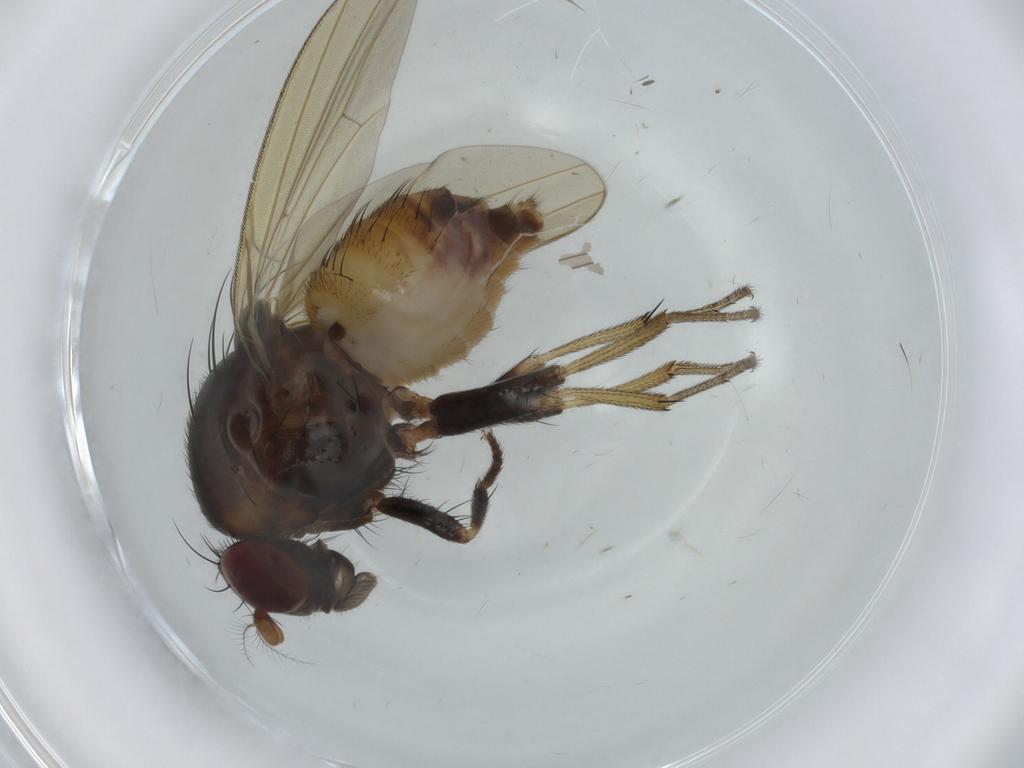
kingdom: Animalia
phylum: Arthropoda
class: Insecta
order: Diptera
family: Lauxaniidae
